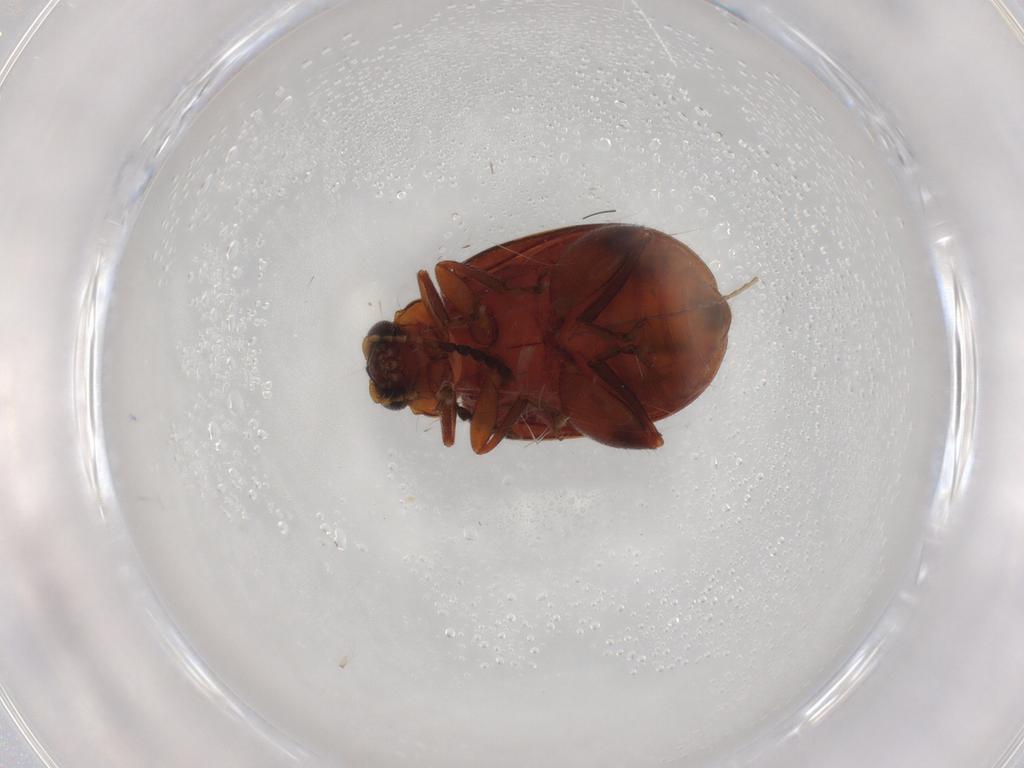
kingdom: Animalia
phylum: Arthropoda
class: Insecta
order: Coleoptera
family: Chrysomelidae
